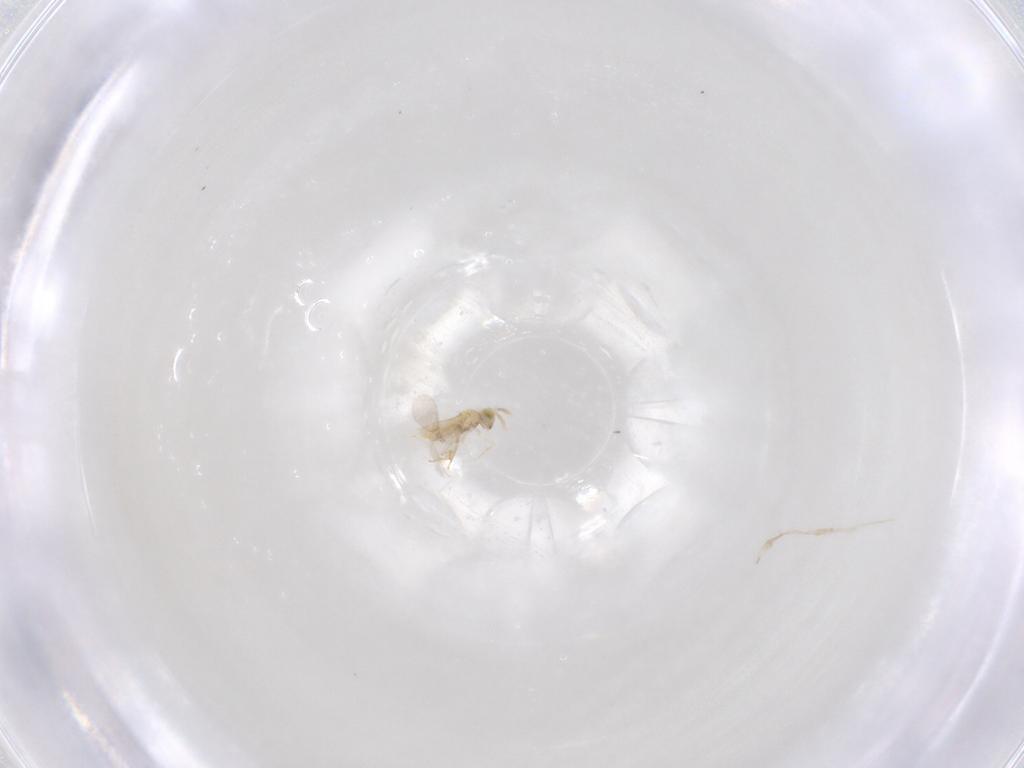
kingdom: Animalia
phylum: Arthropoda
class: Insecta
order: Hymenoptera
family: Aphelinidae
